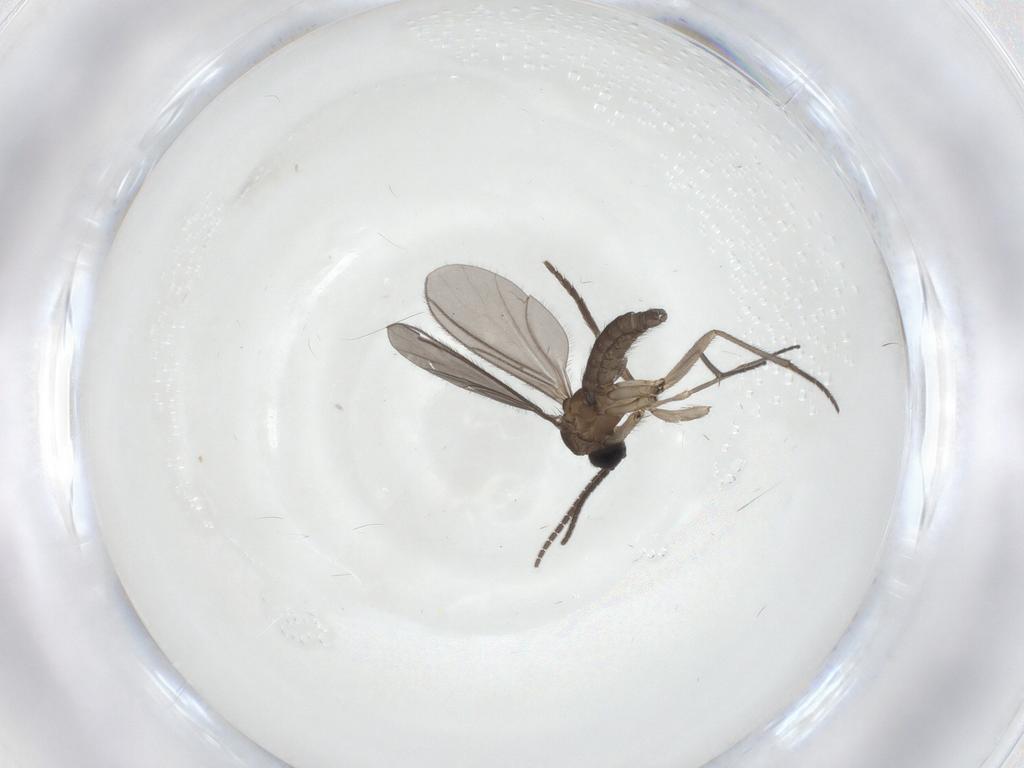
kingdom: Animalia
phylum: Arthropoda
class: Insecta
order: Diptera
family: Sciaridae
